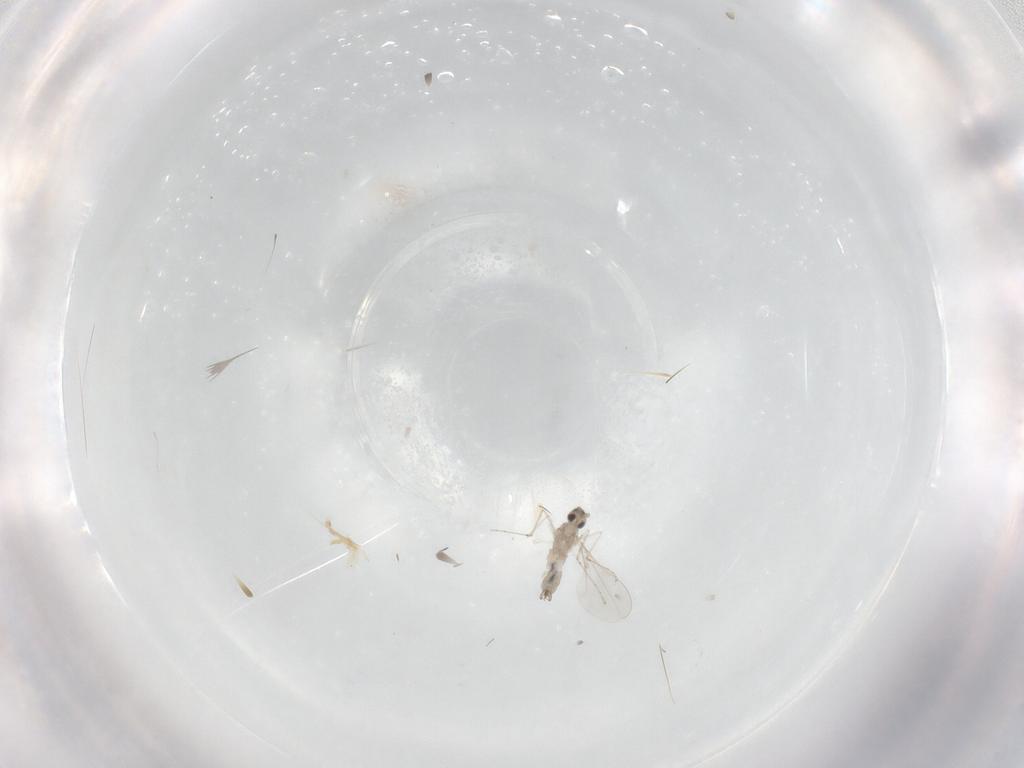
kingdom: Animalia
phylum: Arthropoda
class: Insecta
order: Diptera
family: Cecidomyiidae
